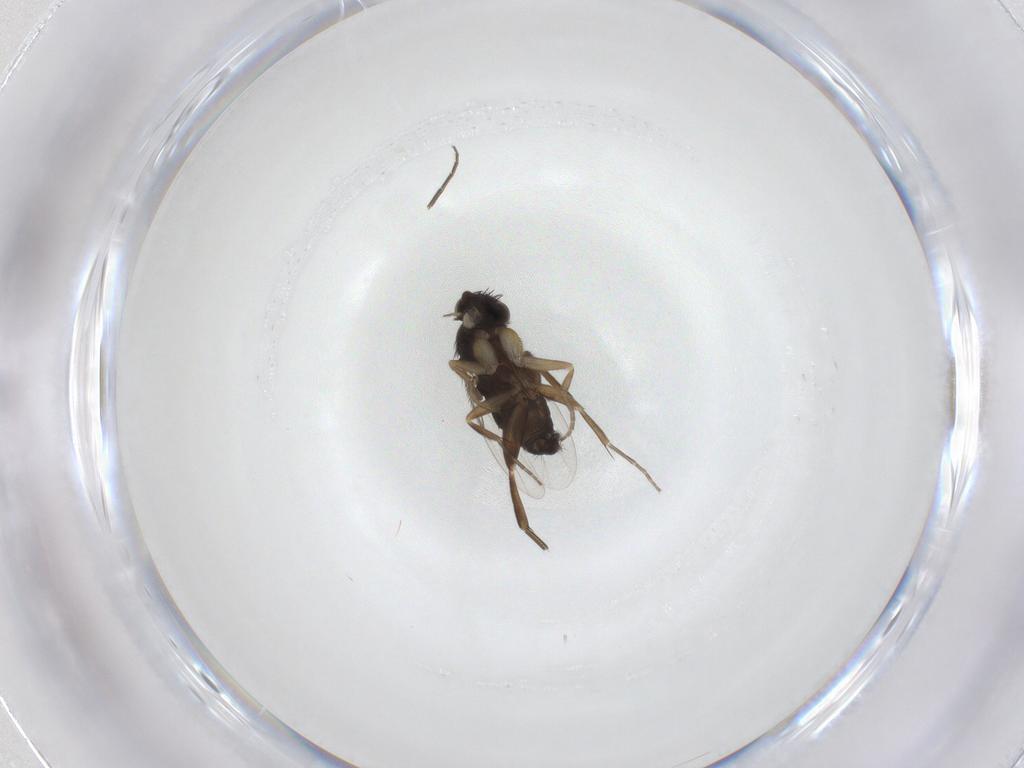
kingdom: Animalia
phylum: Arthropoda
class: Insecta
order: Diptera
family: Phoridae
